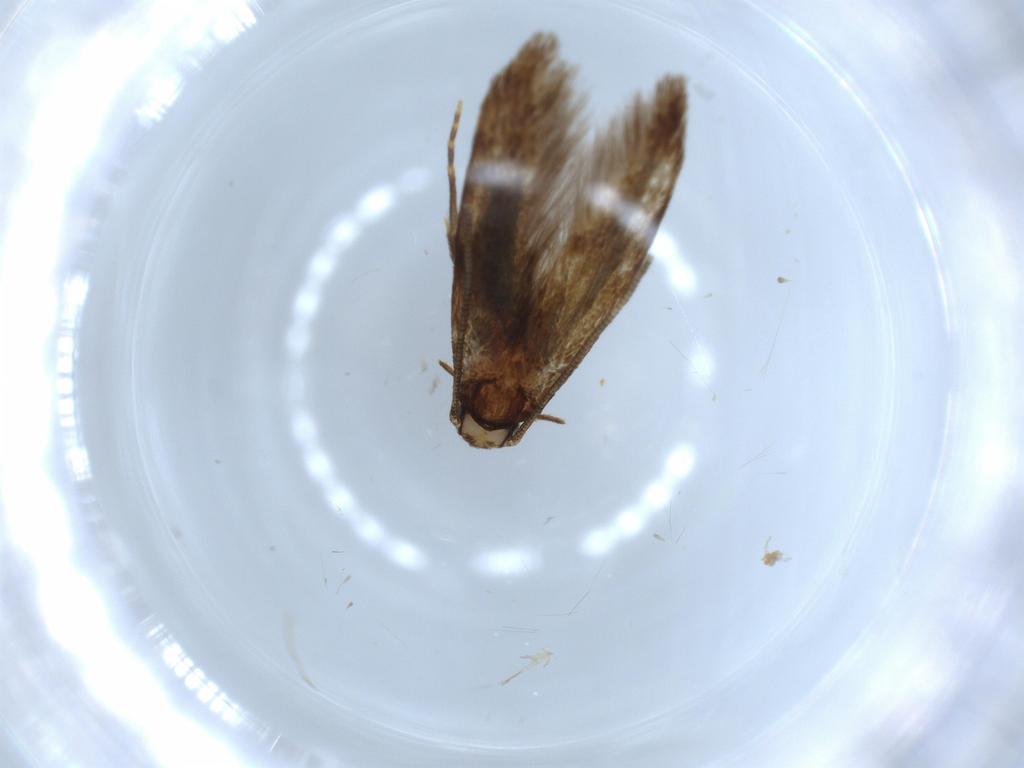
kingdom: Animalia
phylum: Arthropoda
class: Insecta
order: Lepidoptera
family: Tineidae
